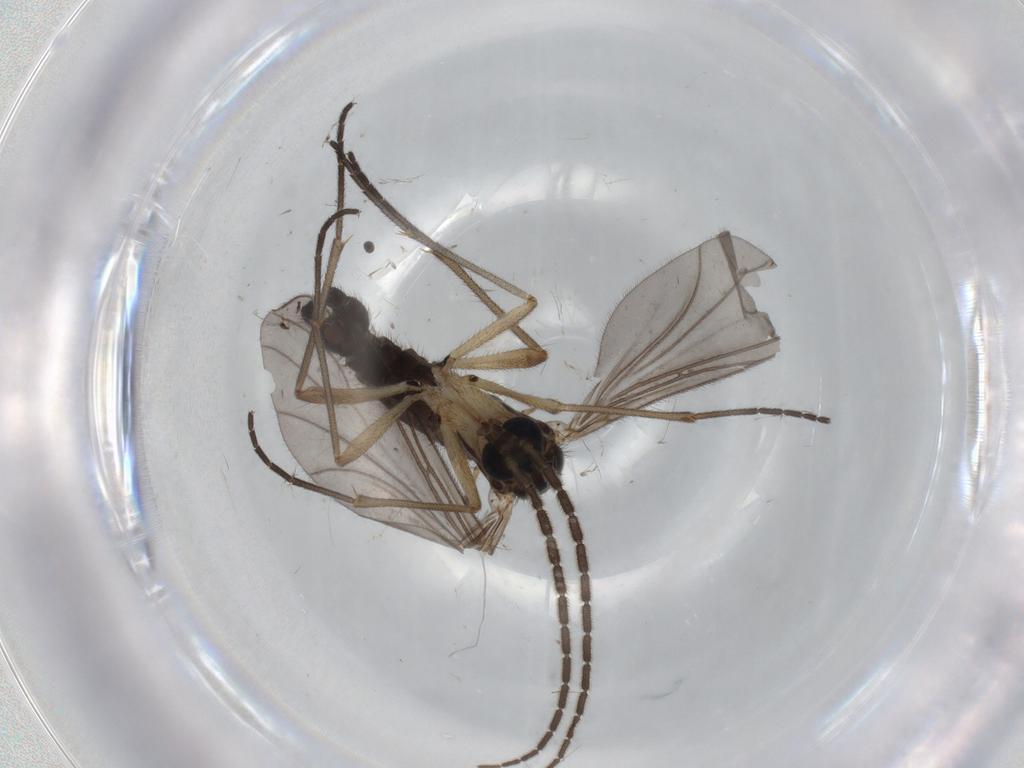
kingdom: Animalia
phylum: Arthropoda
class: Insecta
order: Diptera
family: Sciaridae
